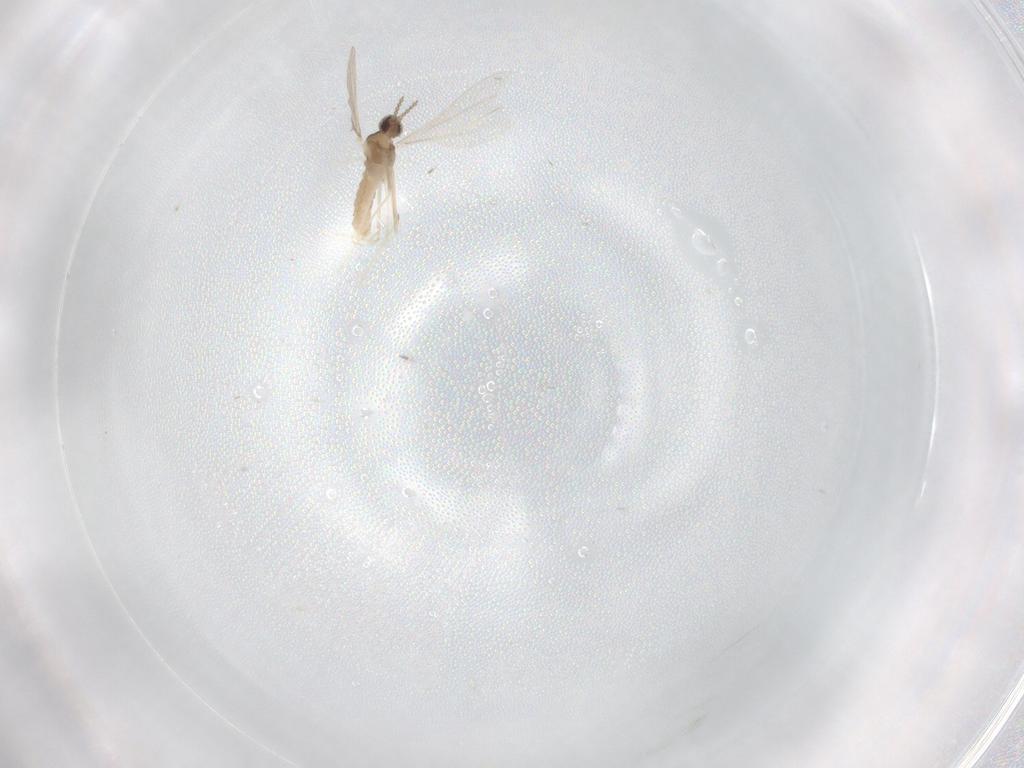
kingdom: Animalia
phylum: Arthropoda
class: Insecta
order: Diptera
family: Cecidomyiidae
